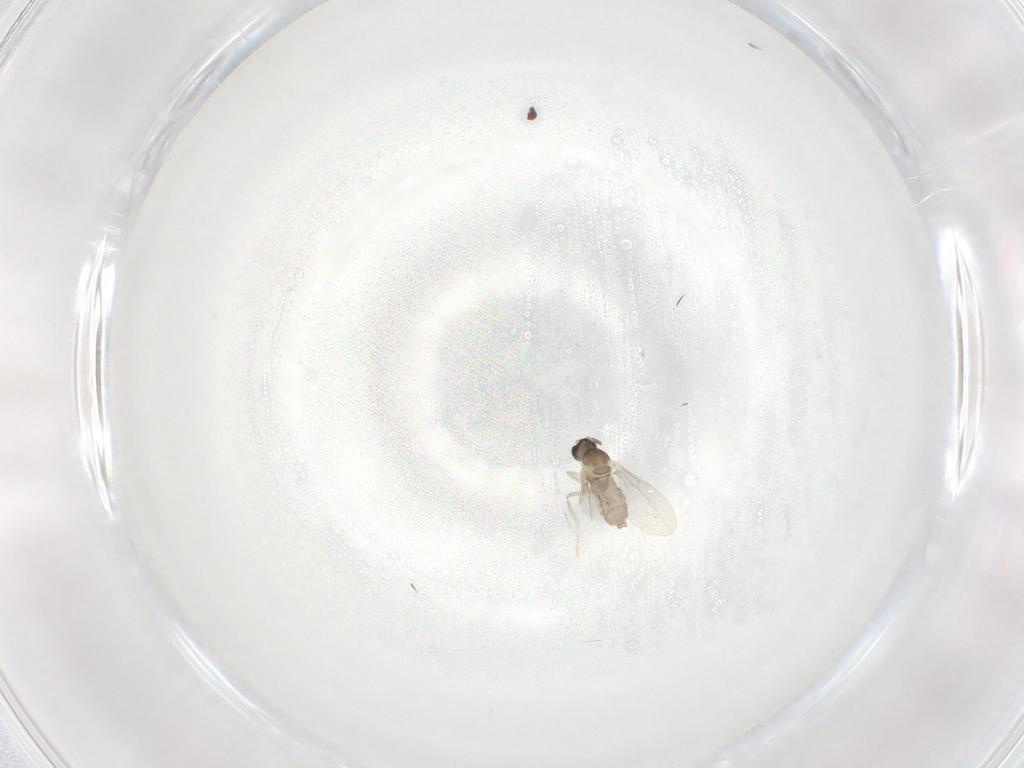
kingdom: Animalia
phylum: Arthropoda
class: Insecta
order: Diptera
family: Cecidomyiidae
